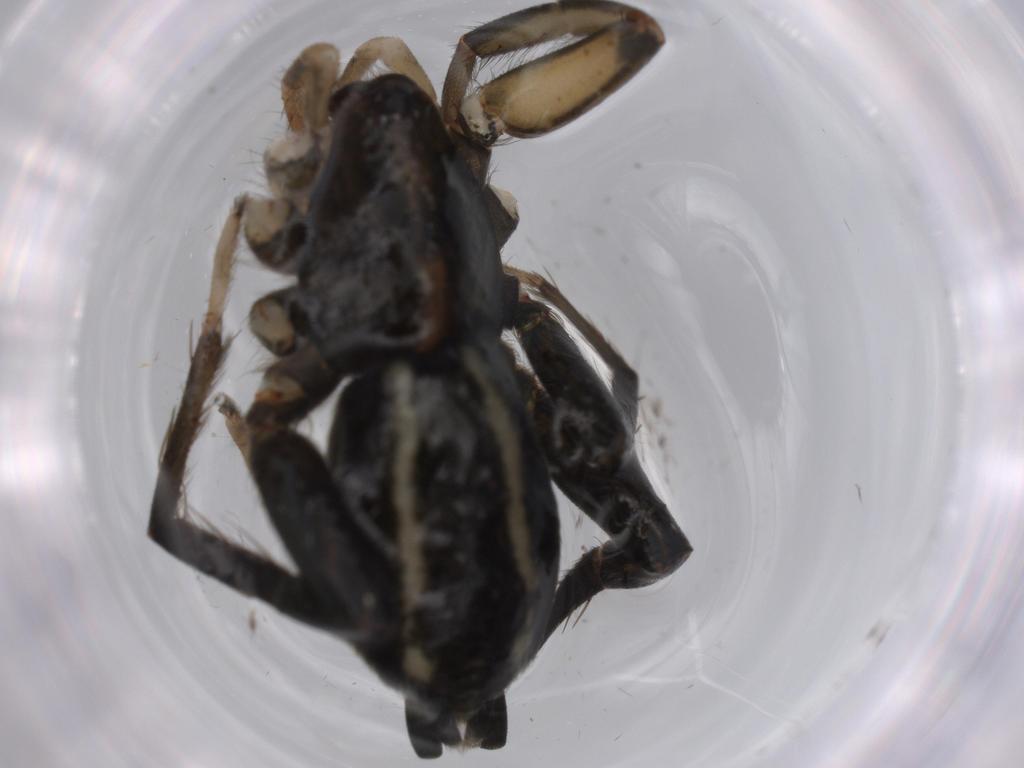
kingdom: Animalia
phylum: Arthropoda
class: Arachnida
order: Araneae
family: Gnaphosidae
